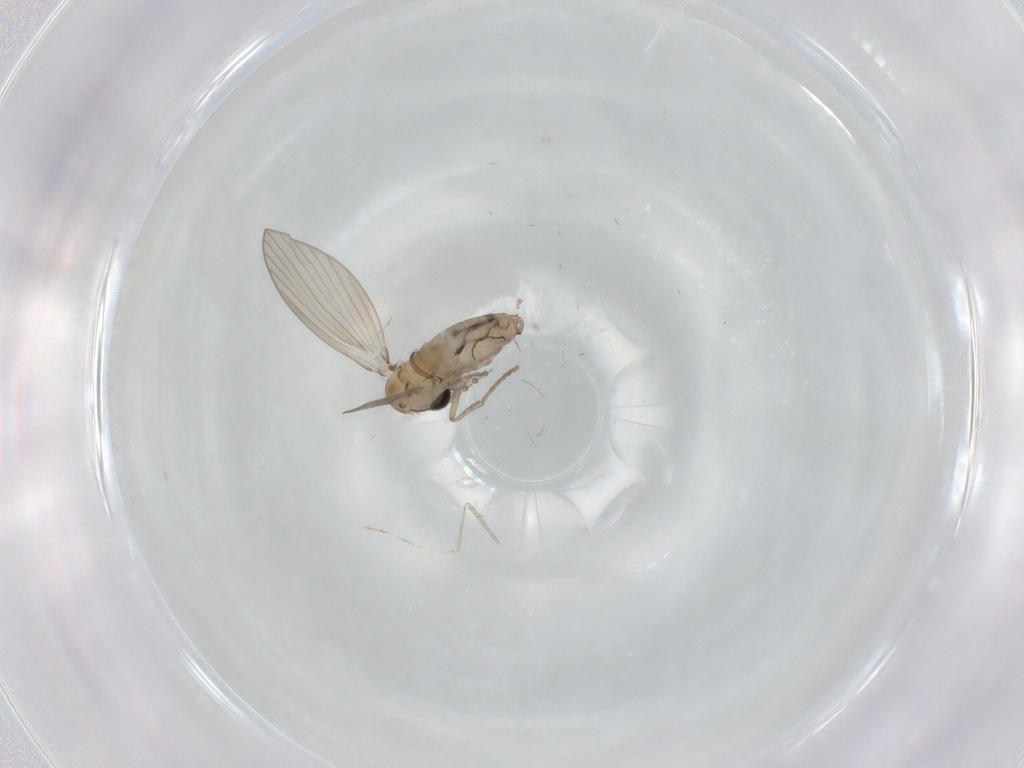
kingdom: Animalia
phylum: Arthropoda
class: Insecta
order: Diptera
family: Psychodidae
